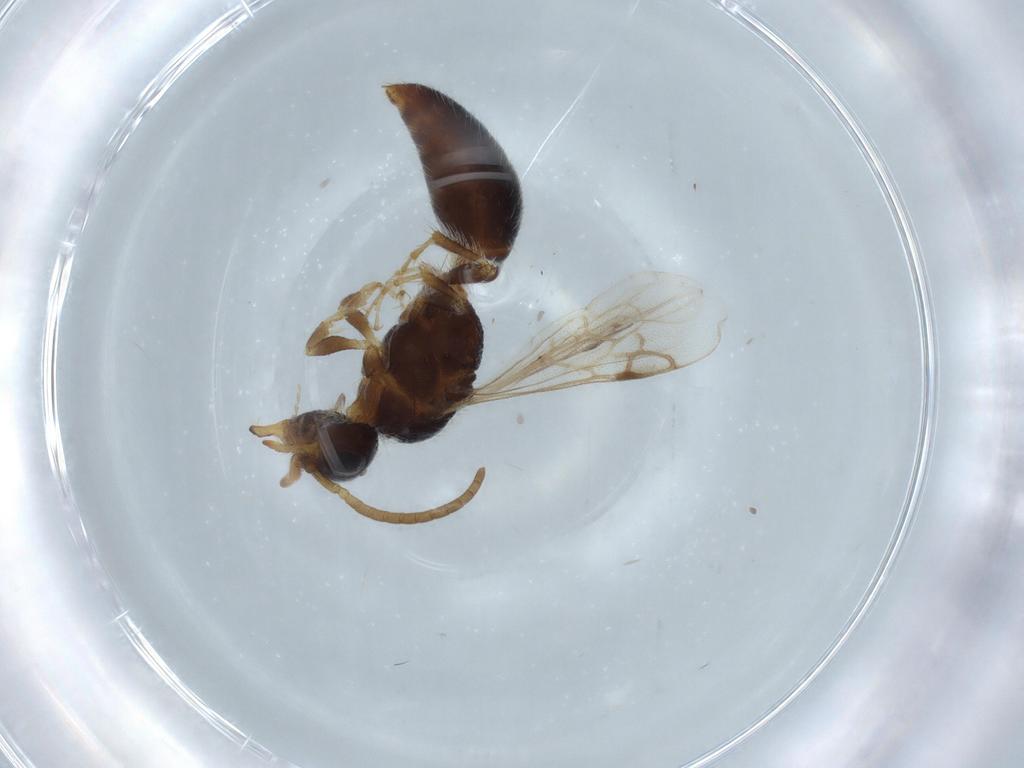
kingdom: Animalia
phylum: Arthropoda
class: Insecta
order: Hymenoptera
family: Mutillidae
